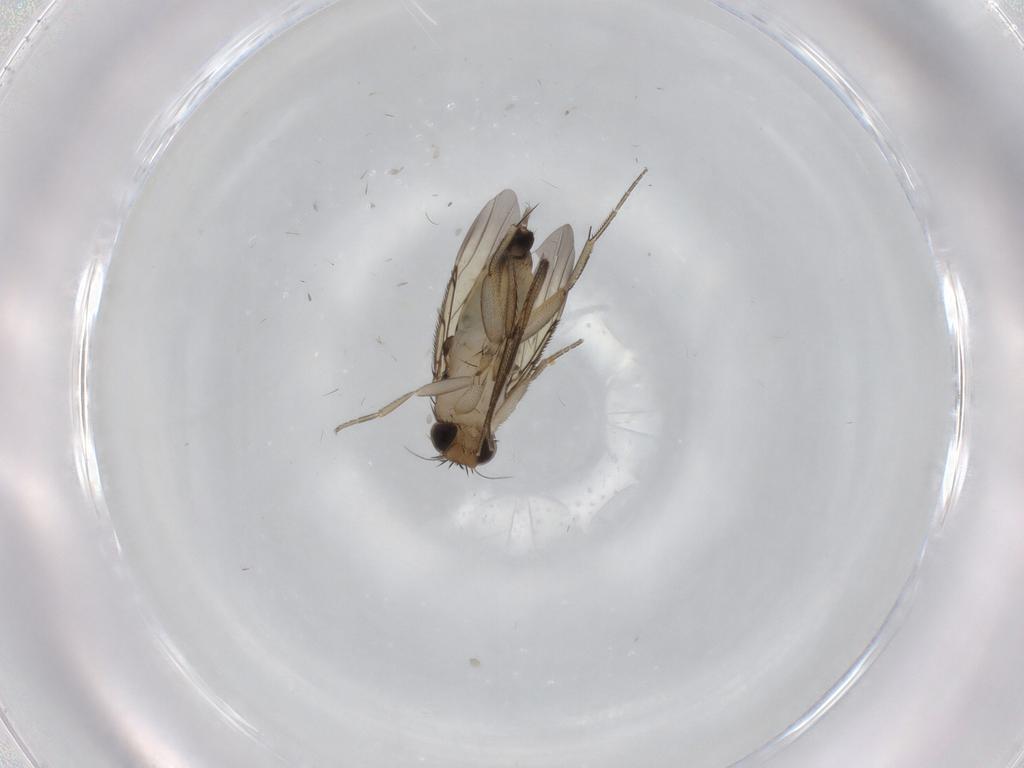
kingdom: Animalia
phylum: Arthropoda
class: Insecta
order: Diptera
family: Phoridae
